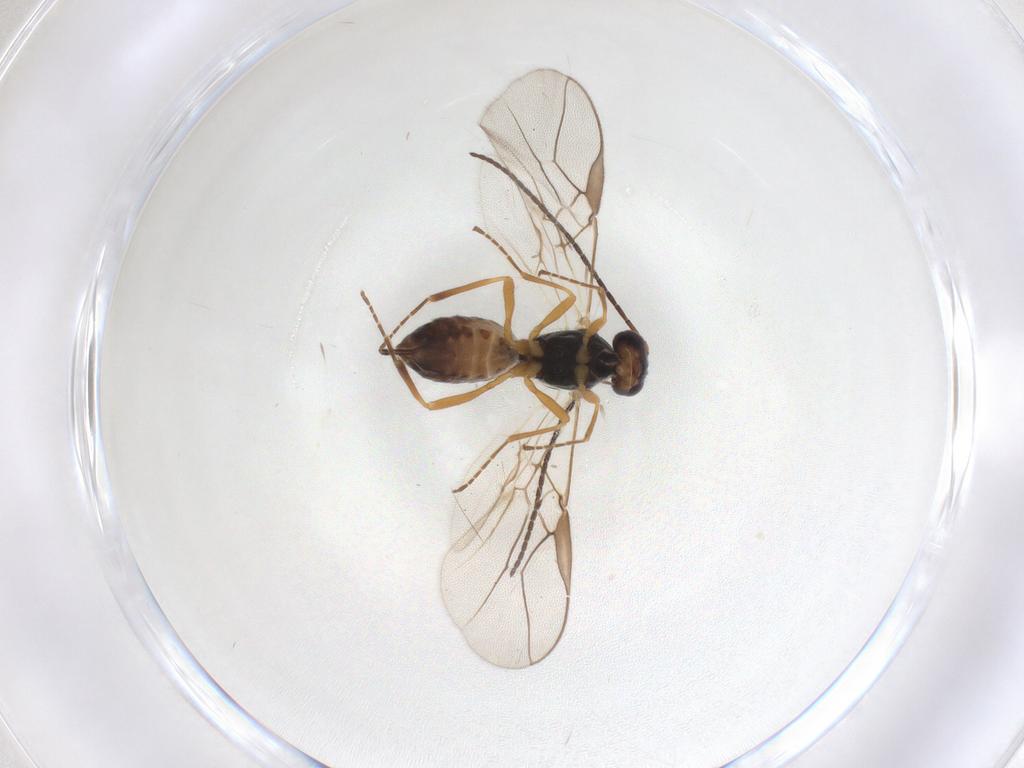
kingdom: Animalia
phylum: Arthropoda
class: Insecta
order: Hymenoptera
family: Braconidae
